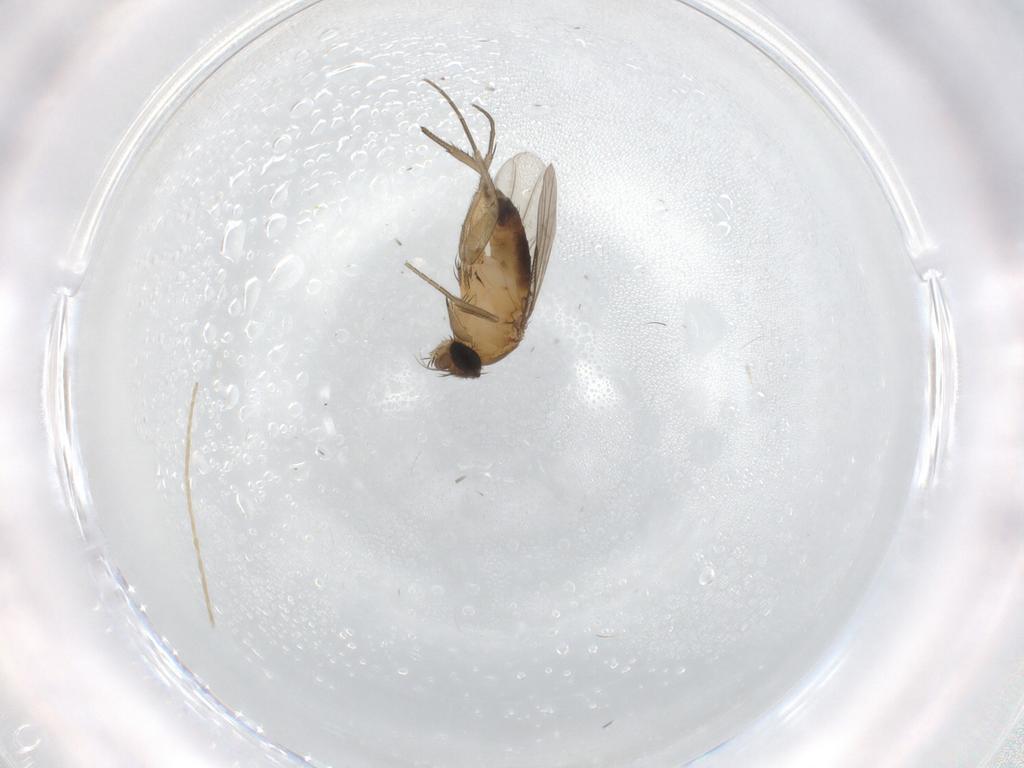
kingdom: Animalia
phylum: Arthropoda
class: Insecta
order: Diptera
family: Phoridae
